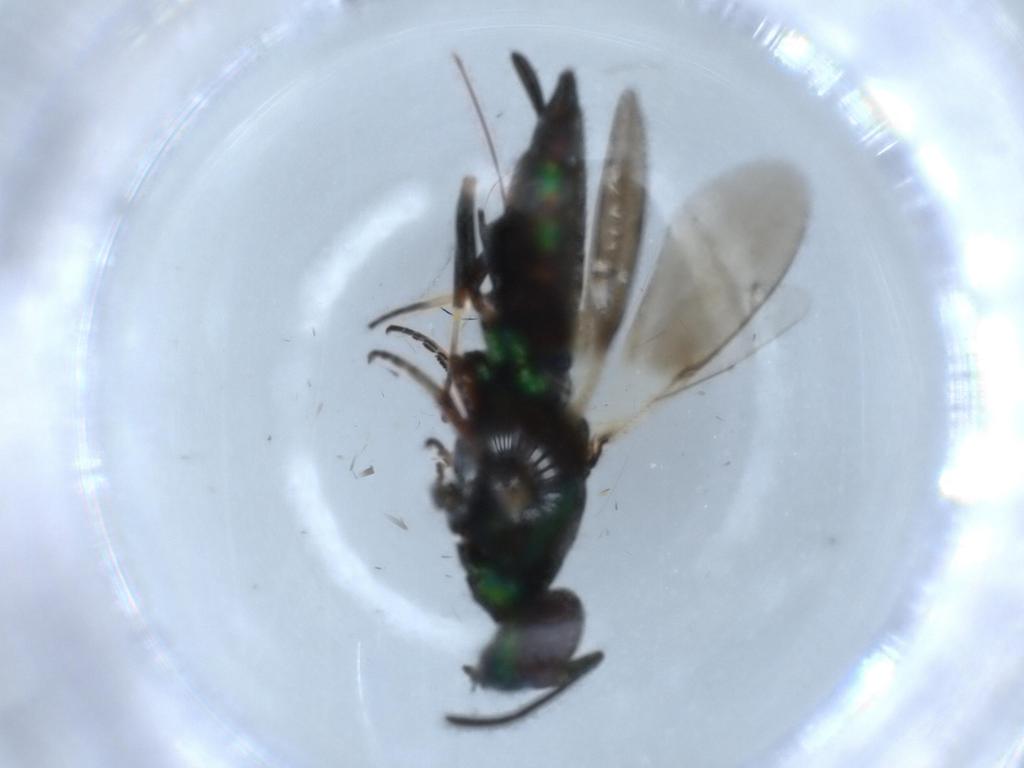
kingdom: Animalia
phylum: Arthropoda
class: Insecta
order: Hymenoptera
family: Eupelmidae
